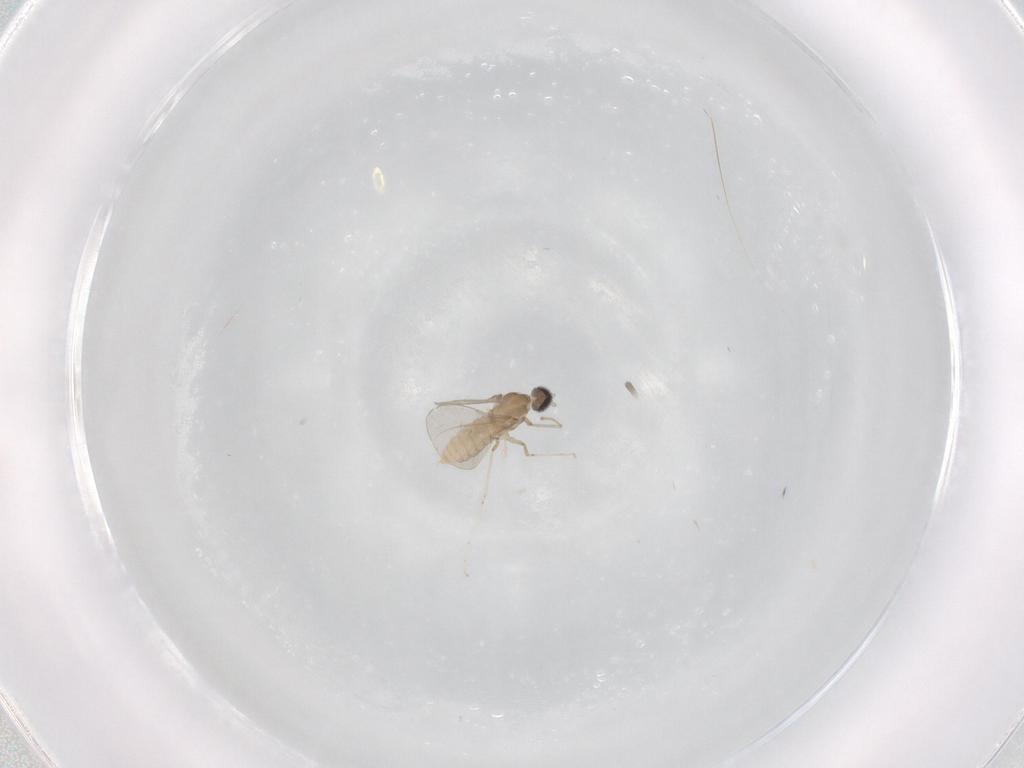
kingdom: Animalia
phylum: Arthropoda
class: Insecta
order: Diptera
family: Cecidomyiidae
